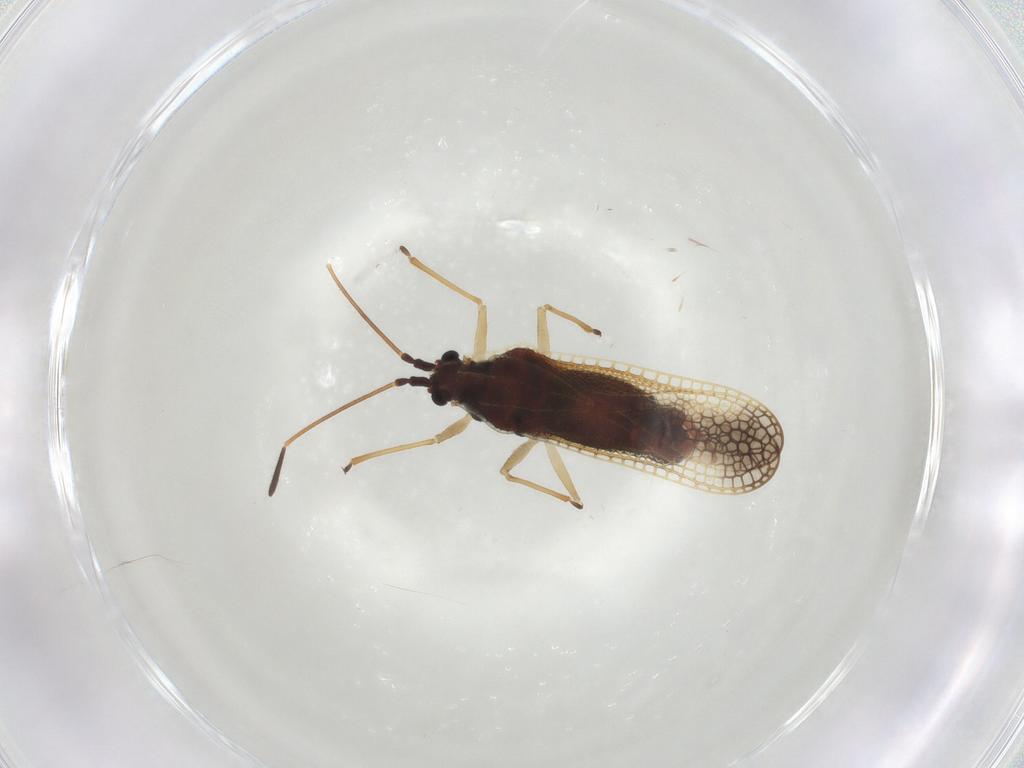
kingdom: Animalia
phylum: Arthropoda
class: Insecta
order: Hemiptera
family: Tingidae
